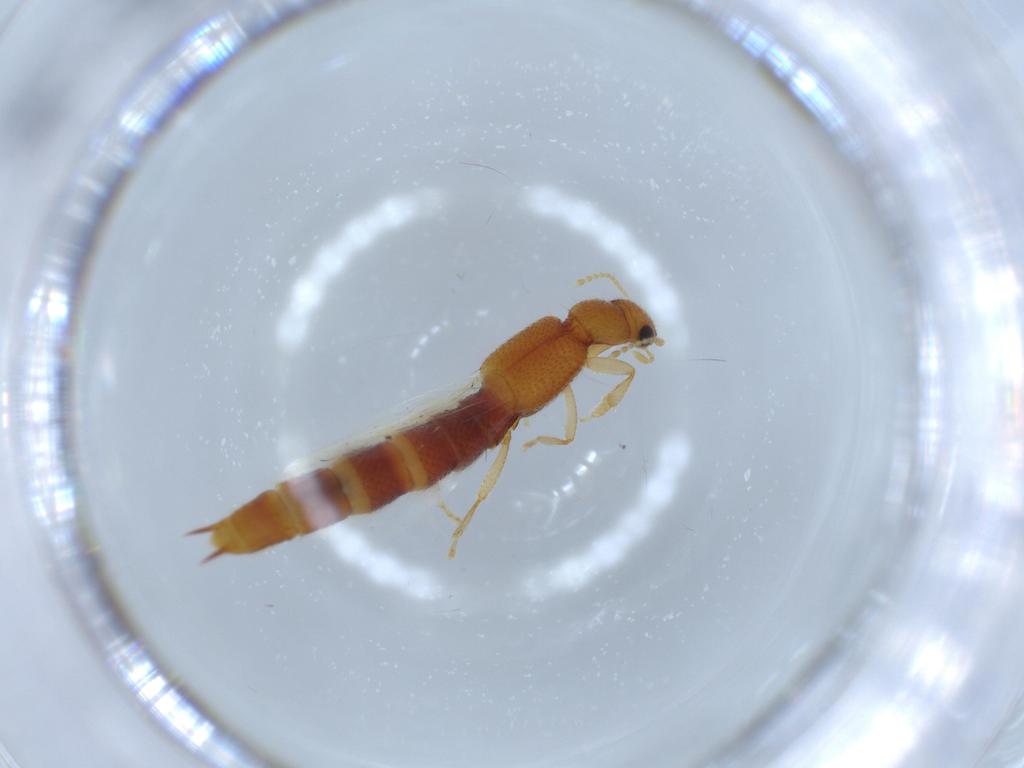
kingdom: Animalia
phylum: Arthropoda
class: Insecta
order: Coleoptera
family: Staphylinidae
